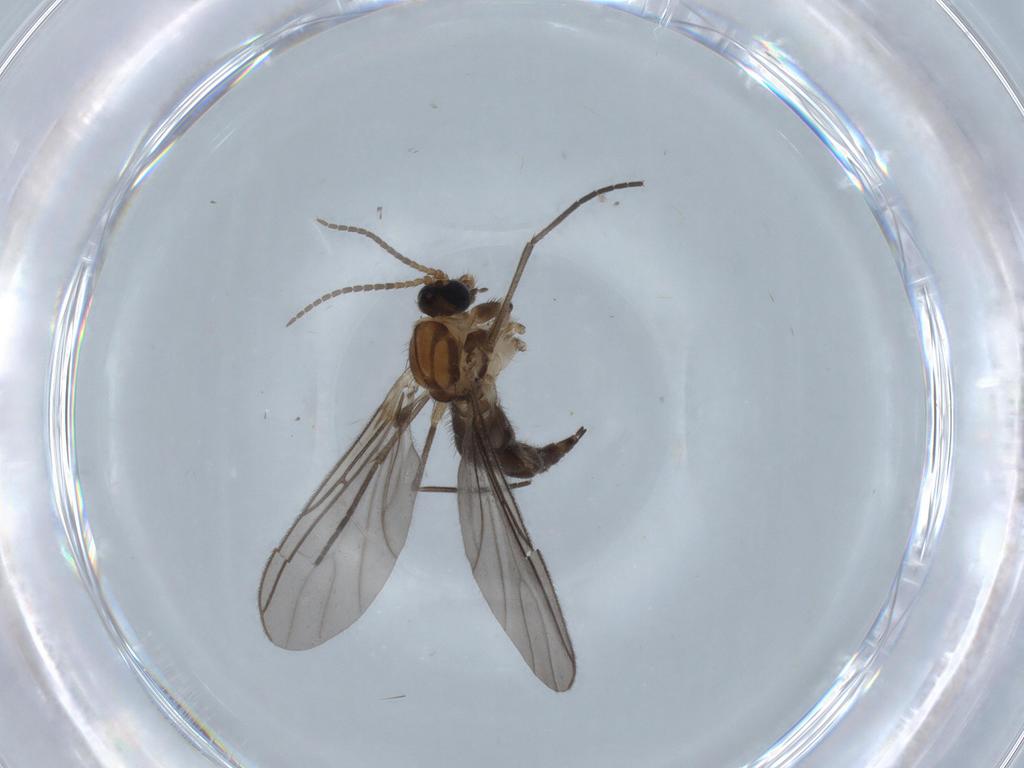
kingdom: Animalia
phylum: Arthropoda
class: Insecta
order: Diptera
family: Sciaridae
